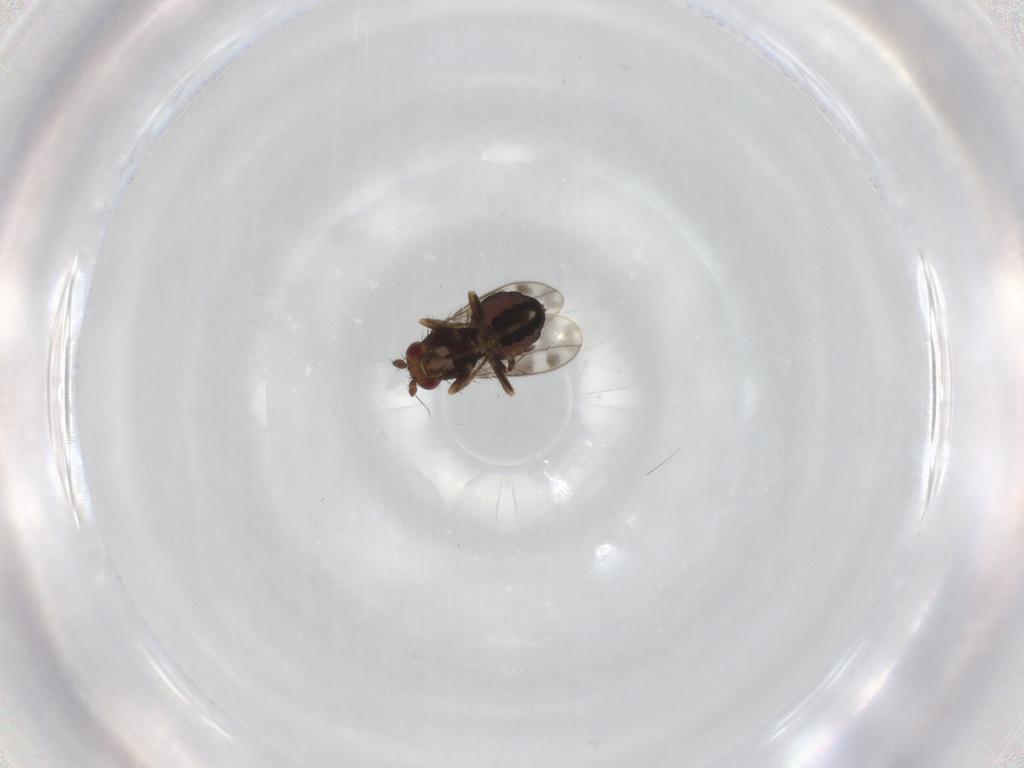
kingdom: Animalia
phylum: Arthropoda
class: Insecta
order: Diptera
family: Sphaeroceridae
